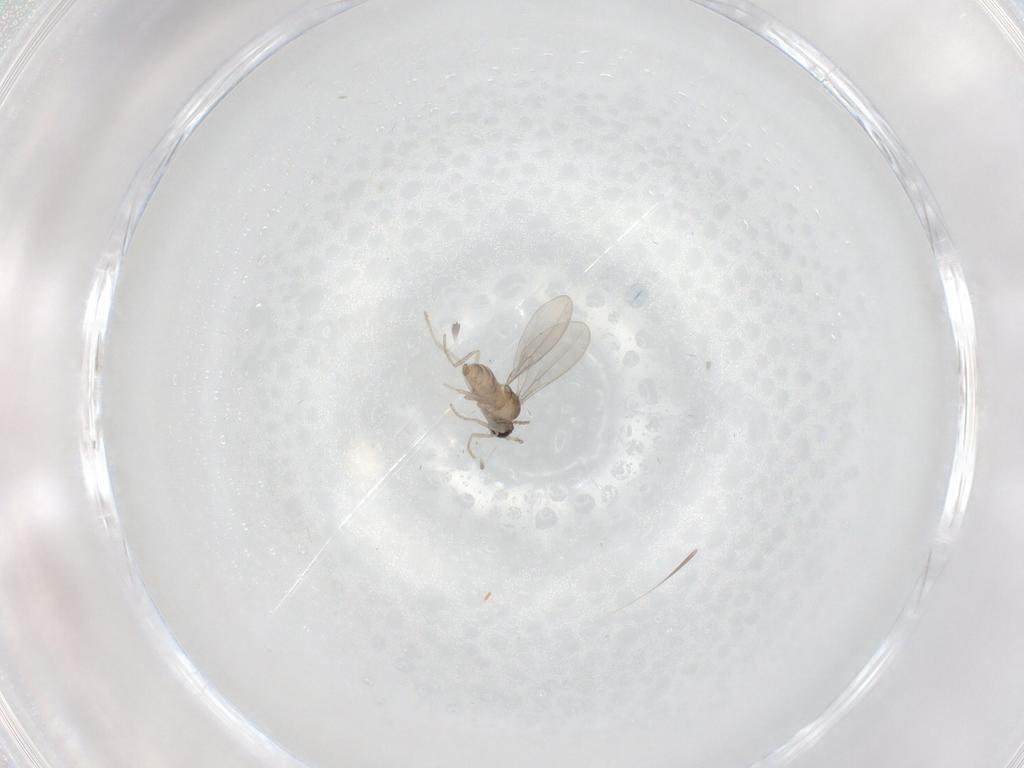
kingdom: Animalia
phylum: Arthropoda
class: Insecta
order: Diptera
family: Cecidomyiidae
